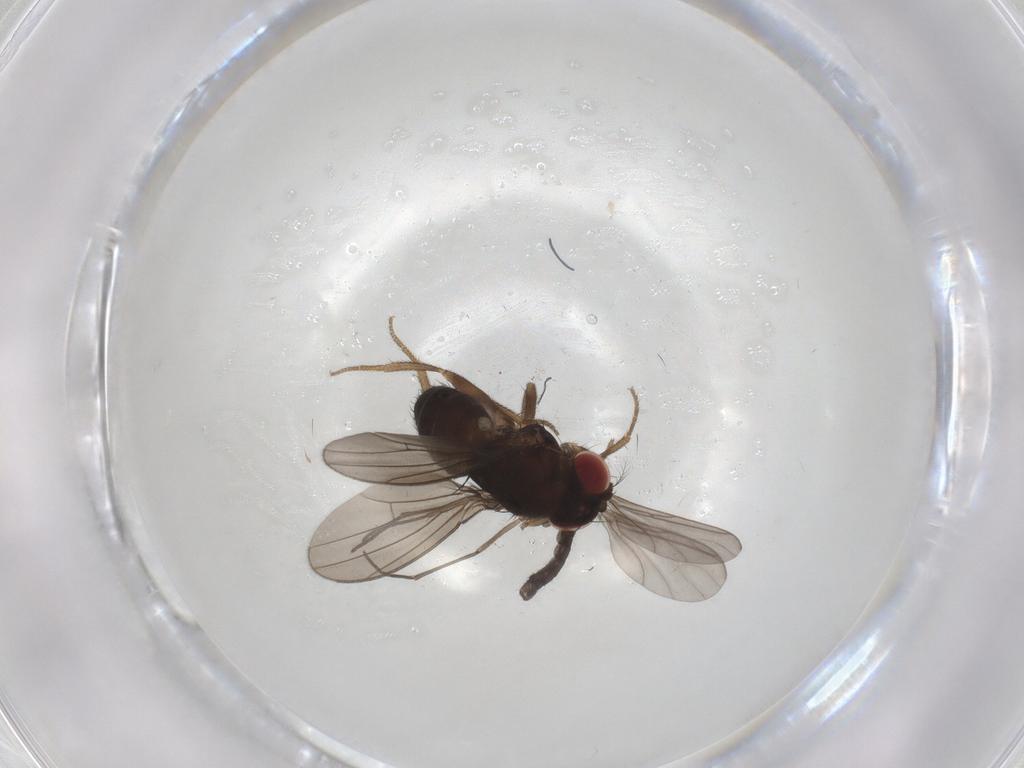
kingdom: Animalia
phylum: Arthropoda
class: Insecta
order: Diptera
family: Drosophilidae
